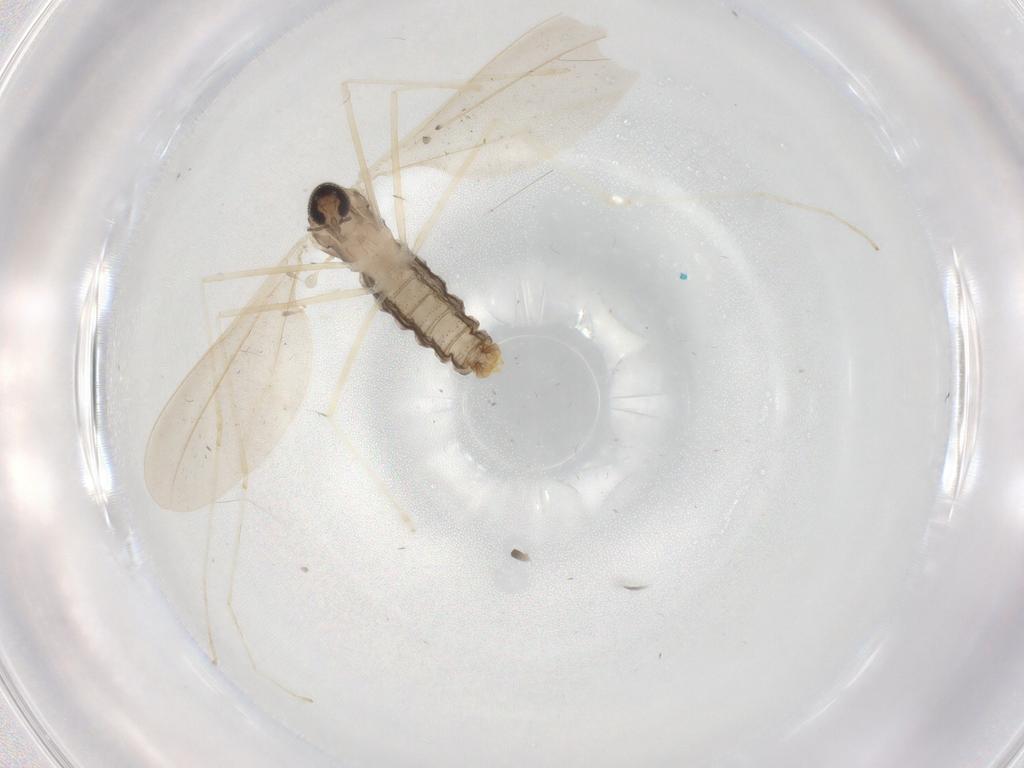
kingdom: Animalia
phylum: Arthropoda
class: Insecta
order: Diptera
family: Cecidomyiidae
